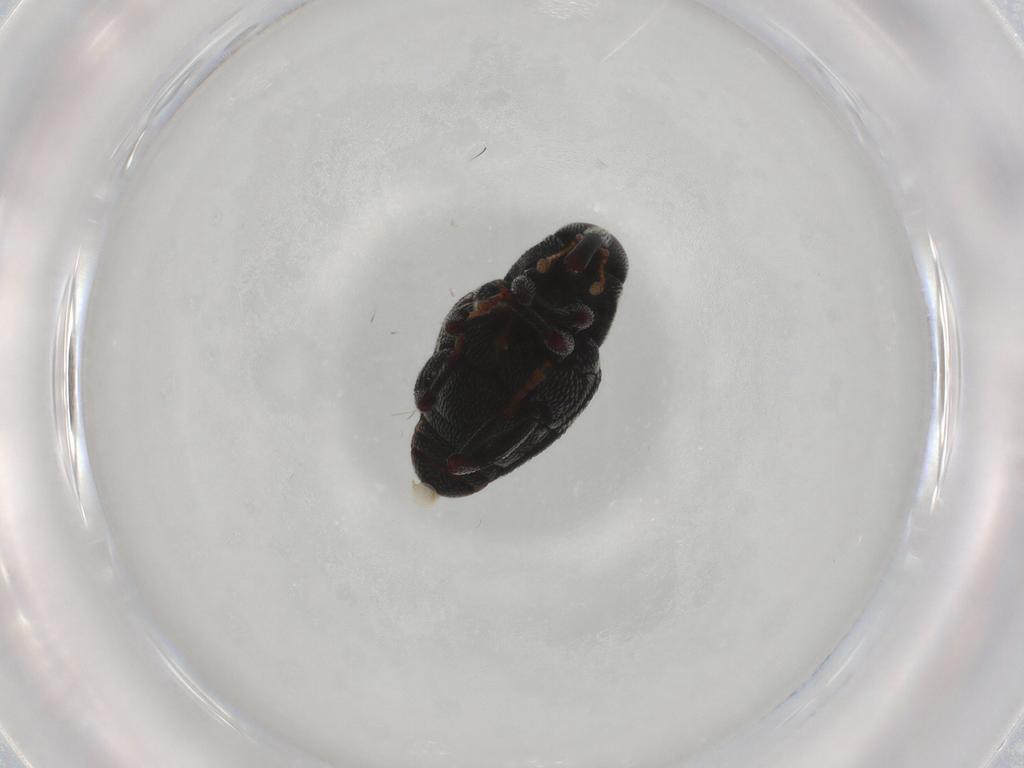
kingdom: Animalia
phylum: Arthropoda
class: Insecta
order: Coleoptera
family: Curculionidae
